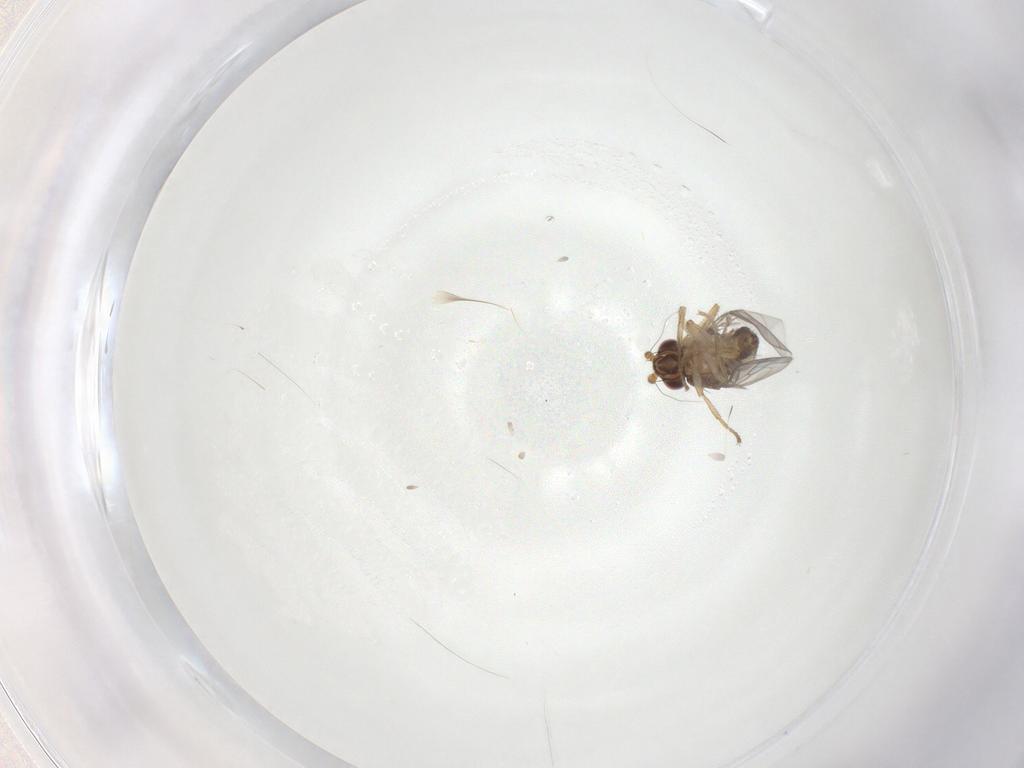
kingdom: Animalia
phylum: Arthropoda
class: Insecta
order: Diptera
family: Sphaeroceridae
